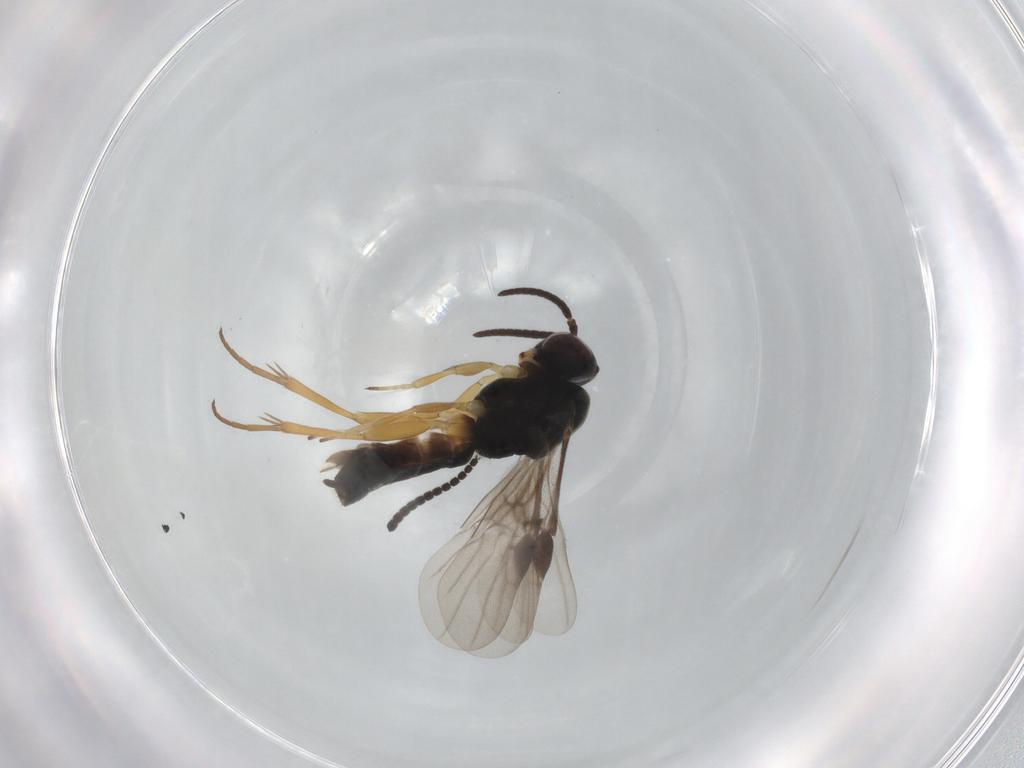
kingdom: Animalia
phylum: Arthropoda
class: Insecta
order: Hymenoptera
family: Braconidae
